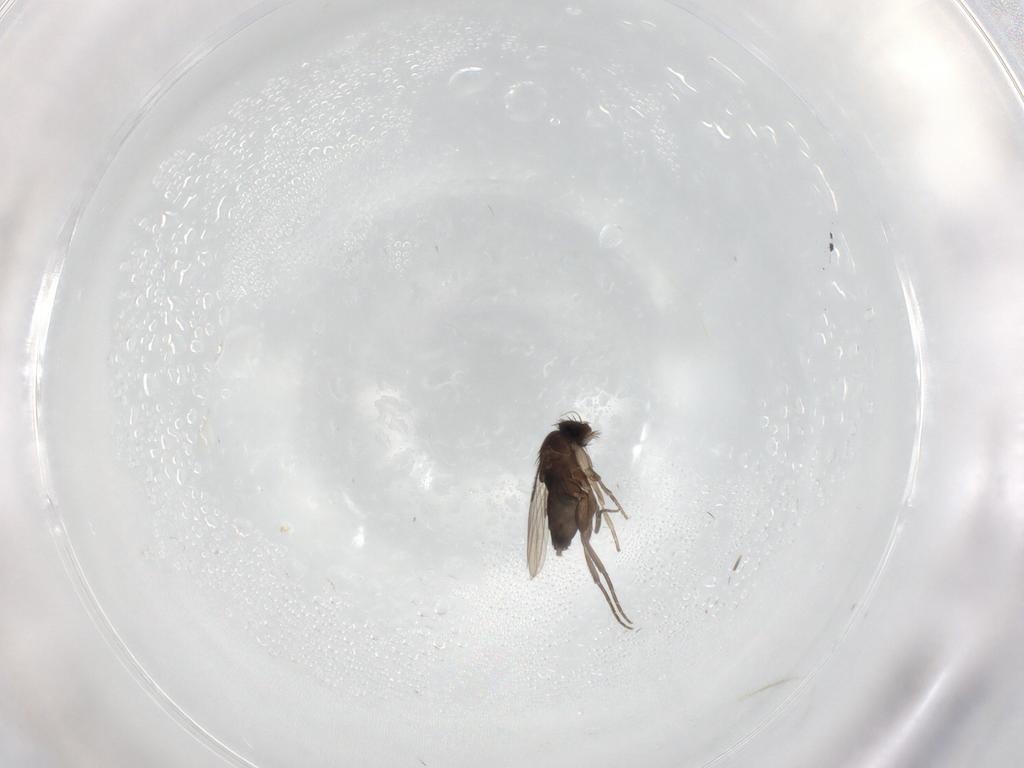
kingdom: Animalia
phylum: Arthropoda
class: Insecta
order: Diptera
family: Phoridae
